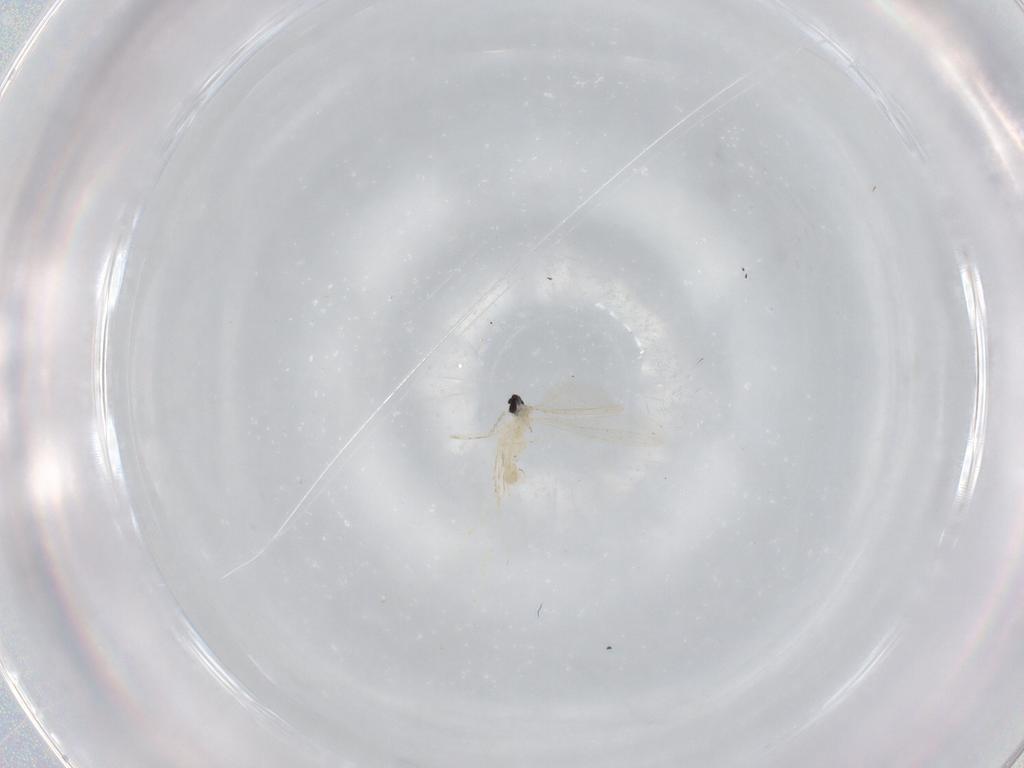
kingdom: Animalia
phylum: Arthropoda
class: Insecta
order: Diptera
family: Cecidomyiidae
